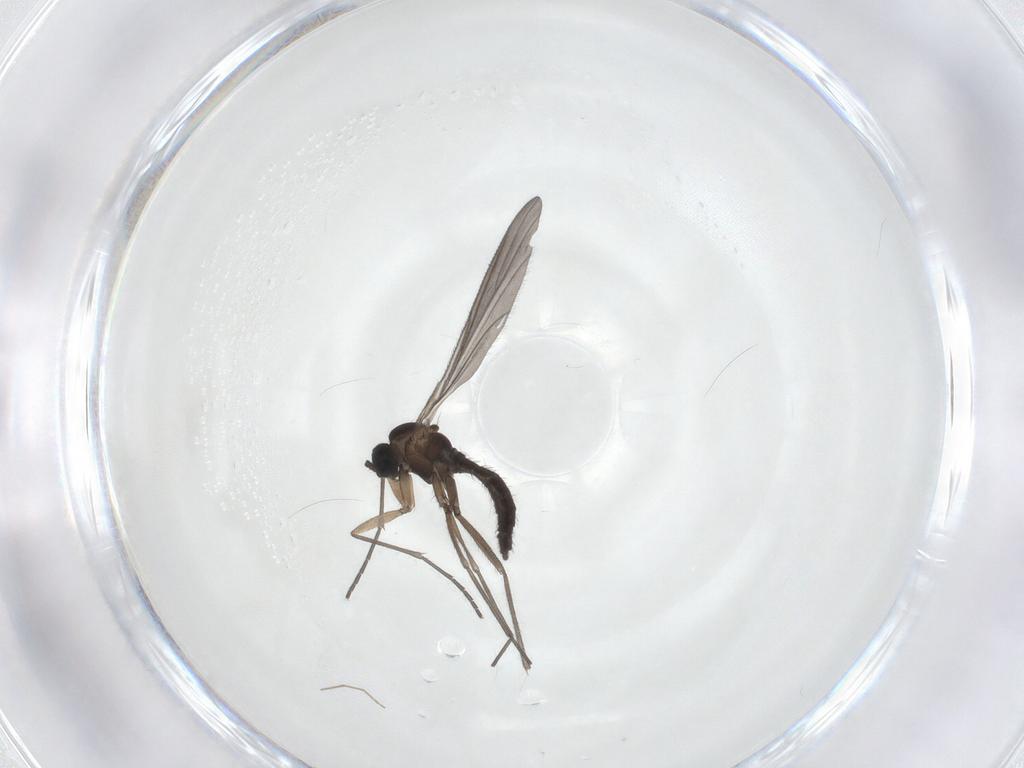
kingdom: Animalia
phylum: Arthropoda
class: Insecta
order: Diptera
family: Sciaridae
